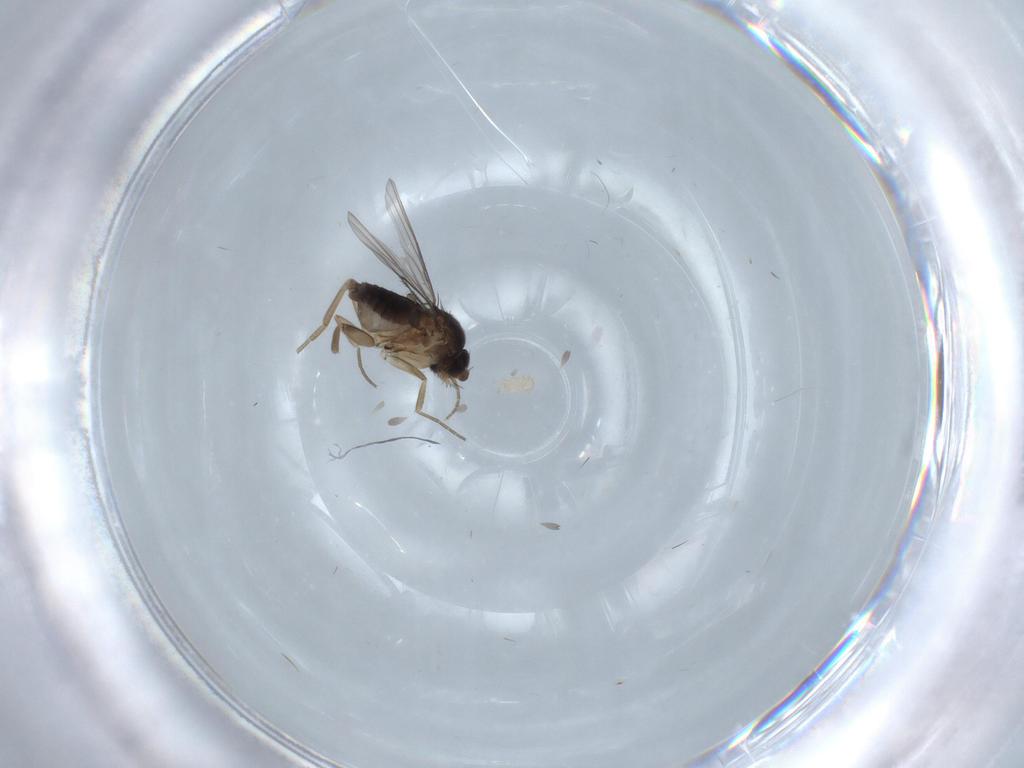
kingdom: Animalia
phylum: Arthropoda
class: Insecta
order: Diptera
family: Phoridae
